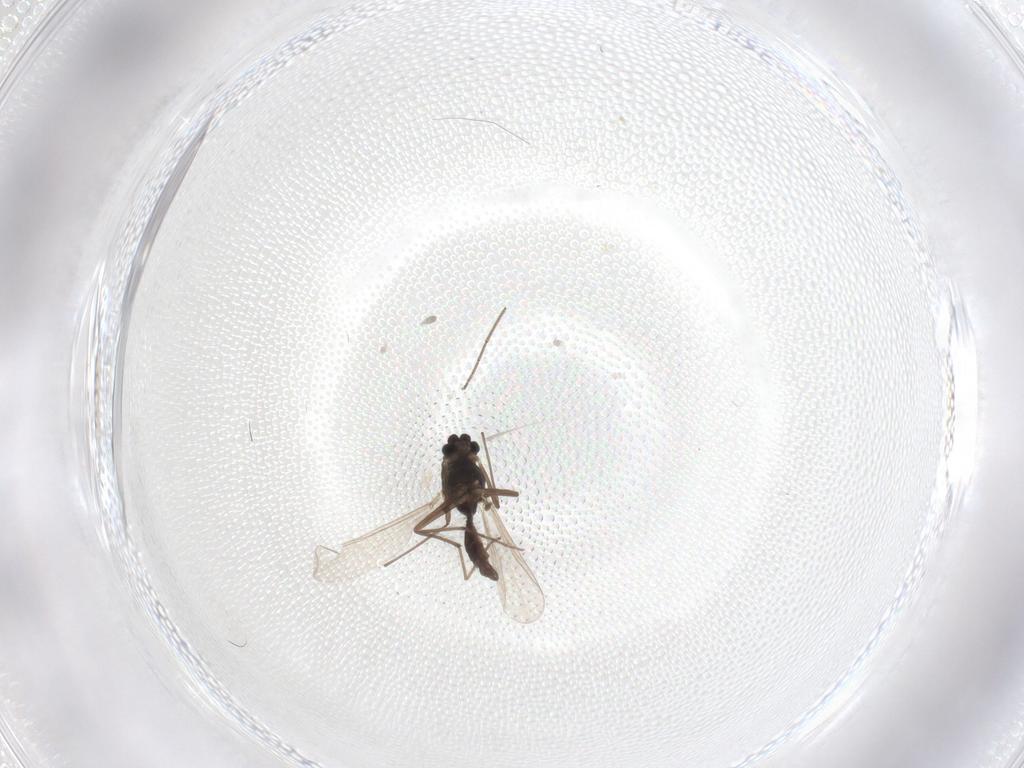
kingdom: Animalia
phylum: Arthropoda
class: Insecta
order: Diptera
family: Chironomidae
